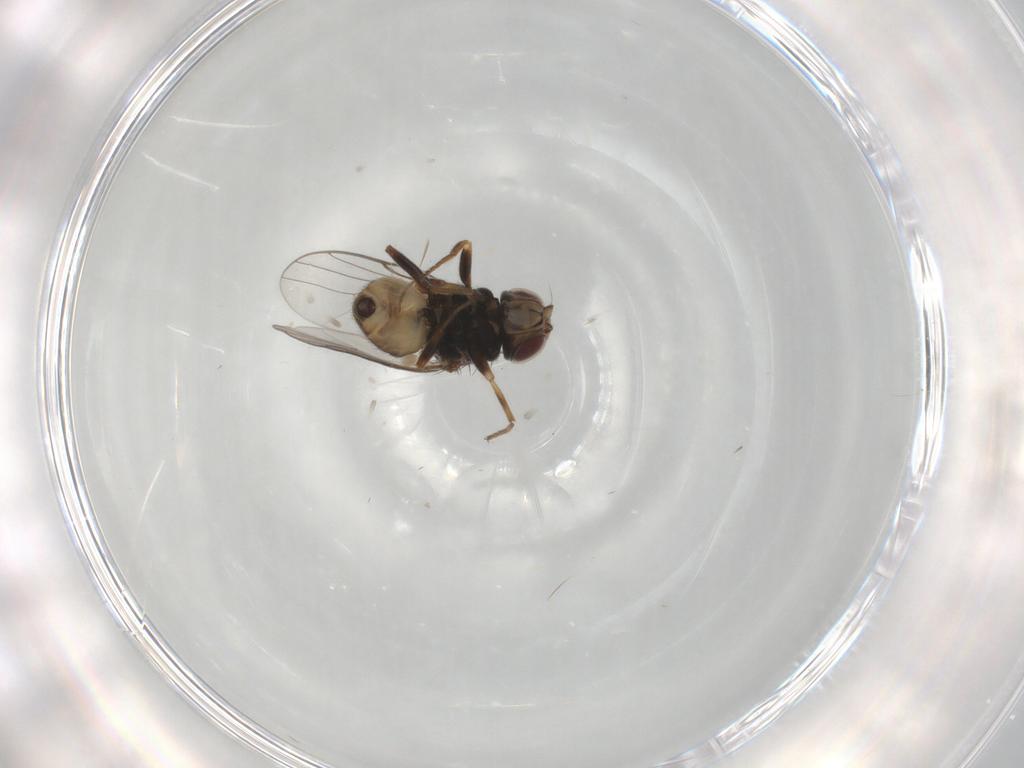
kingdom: Animalia
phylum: Arthropoda
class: Insecta
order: Diptera
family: Chloropidae
